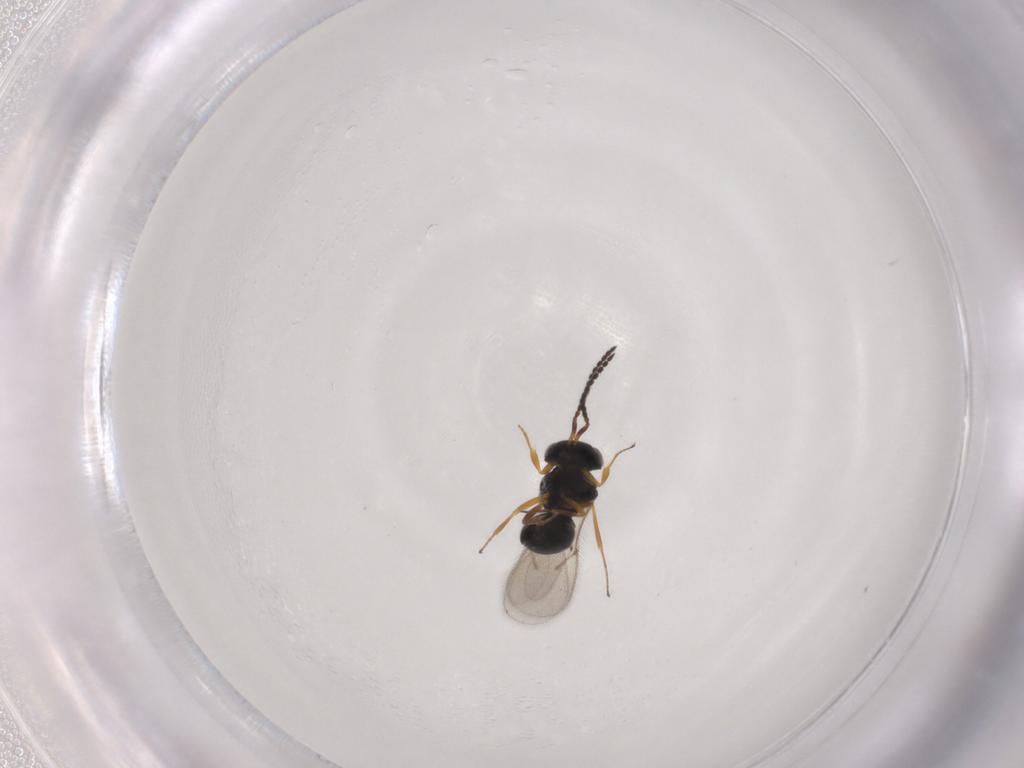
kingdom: Animalia
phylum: Arthropoda
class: Insecta
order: Hymenoptera
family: Scelionidae
